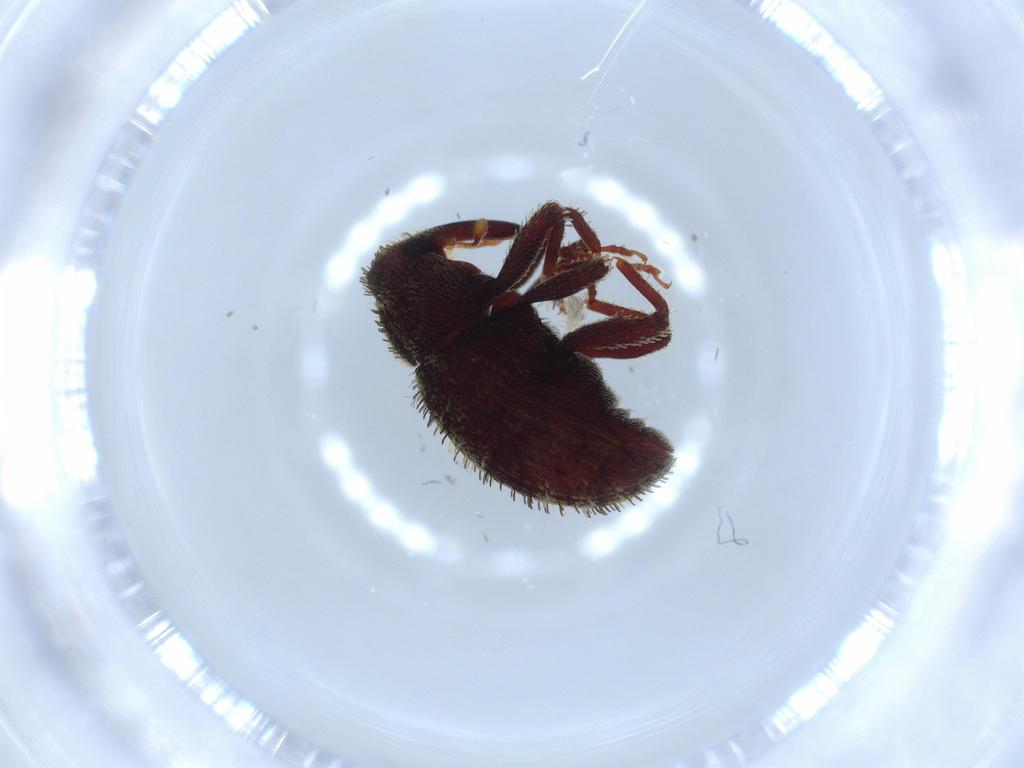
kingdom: Animalia
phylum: Arthropoda
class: Insecta
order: Coleoptera
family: Curculionidae
